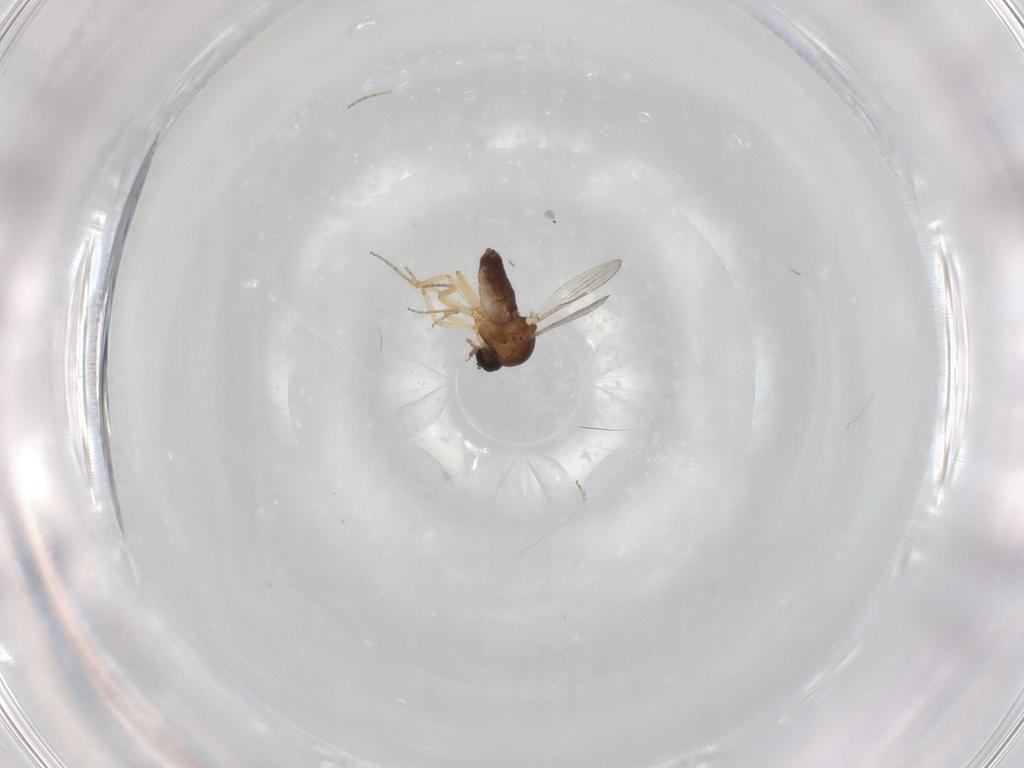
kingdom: Animalia
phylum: Arthropoda
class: Insecta
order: Diptera
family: Ceratopogonidae
